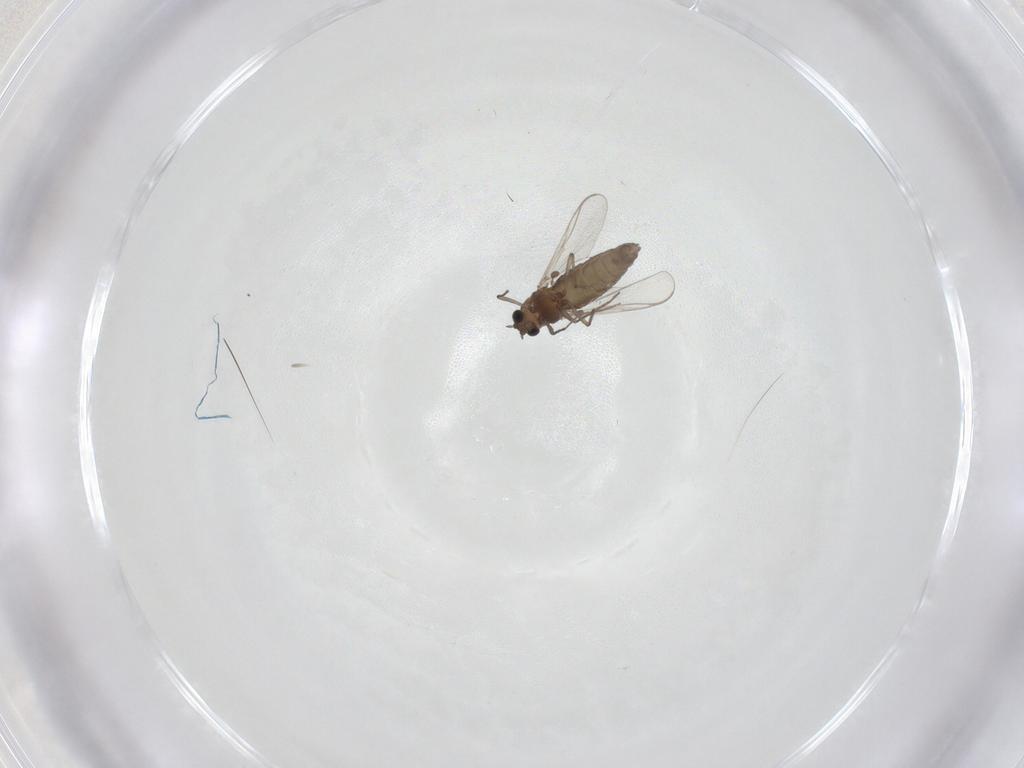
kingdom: Animalia
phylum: Arthropoda
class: Insecta
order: Diptera
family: Chironomidae
